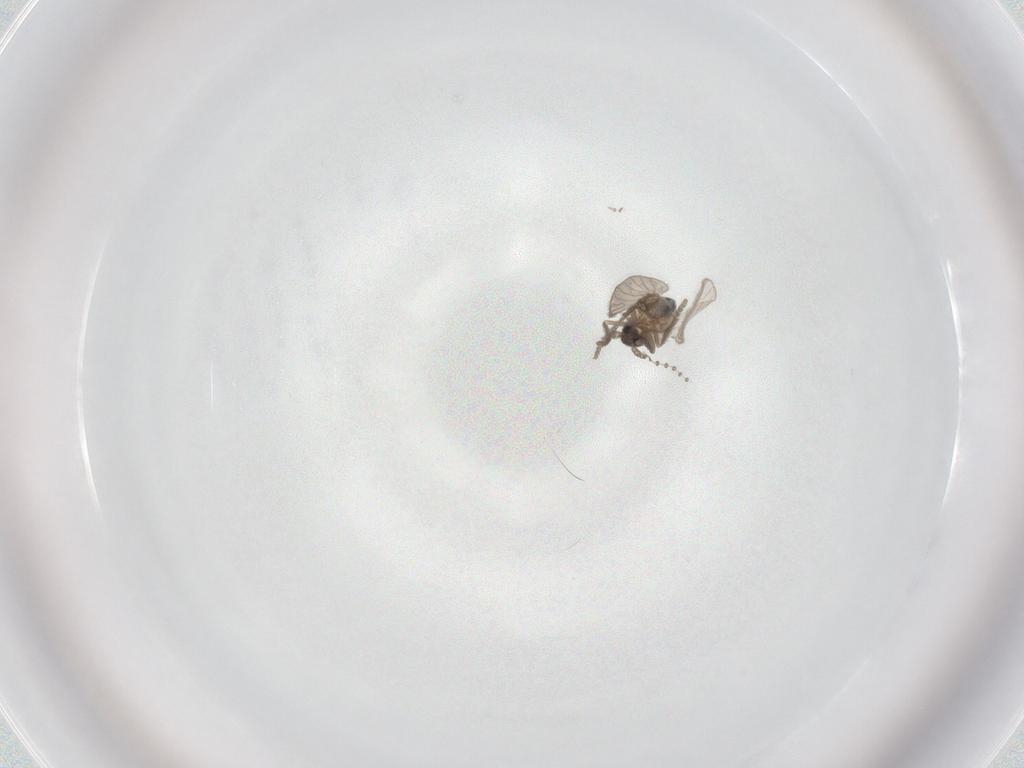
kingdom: Animalia
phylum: Arthropoda
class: Insecta
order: Diptera
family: Psychodidae
